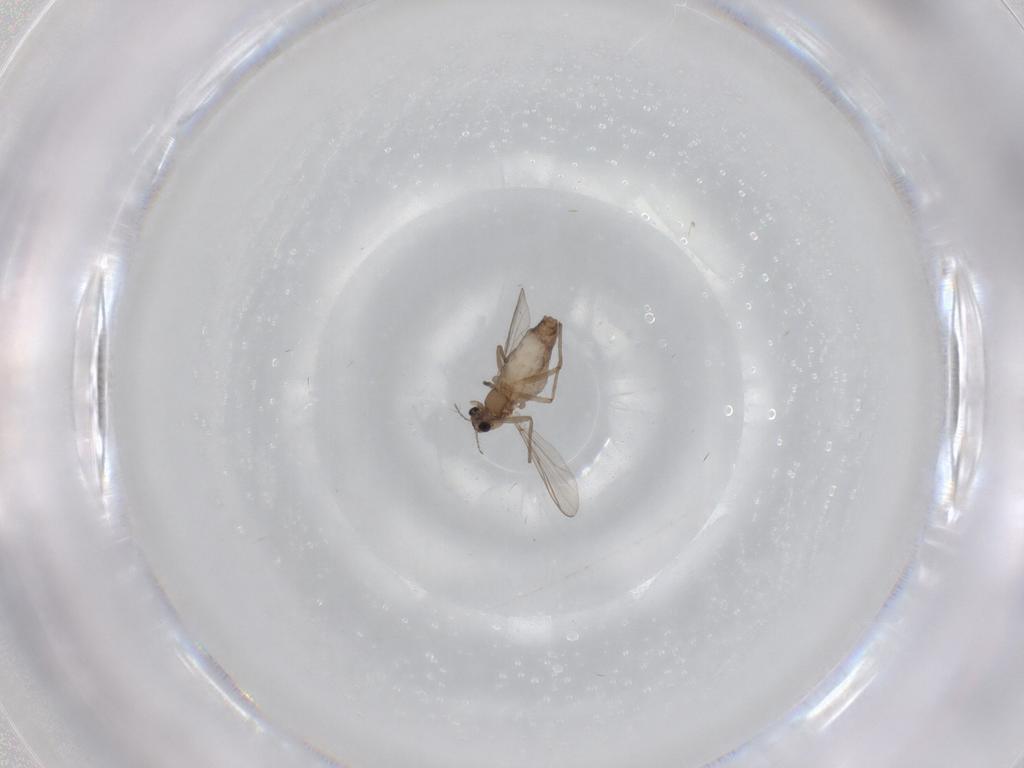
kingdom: Animalia
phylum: Arthropoda
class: Insecta
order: Diptera
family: Chironomidae
